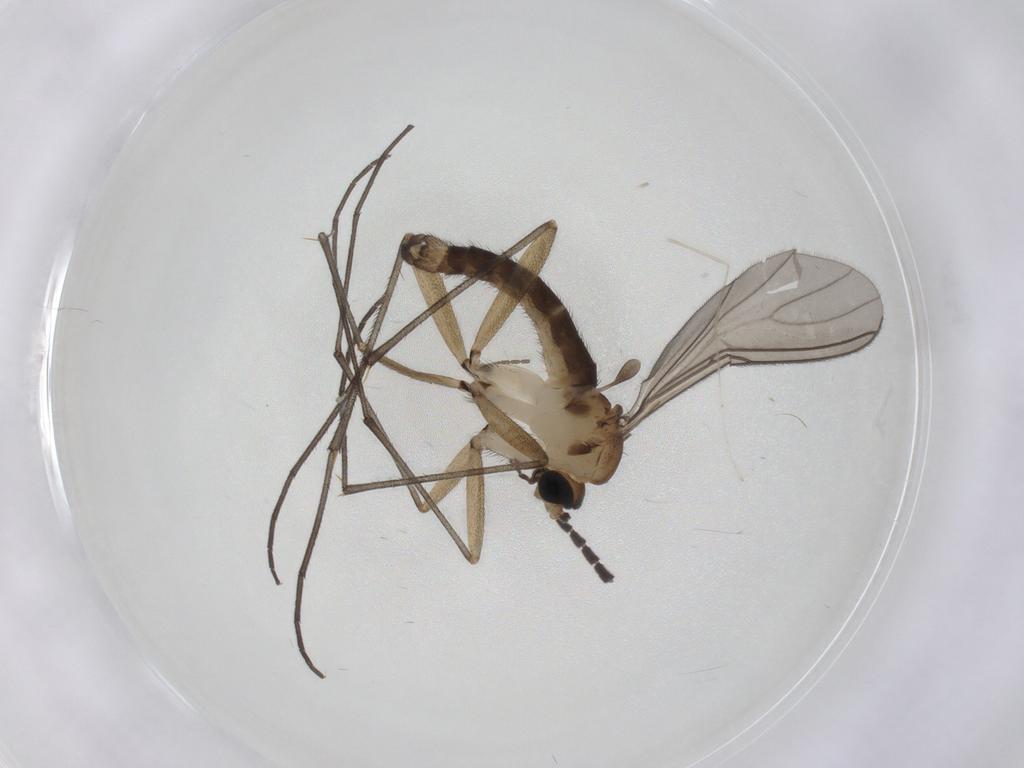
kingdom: Animalia
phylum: Arthropoda
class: Insecta
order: Diptera
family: Sciaridae
